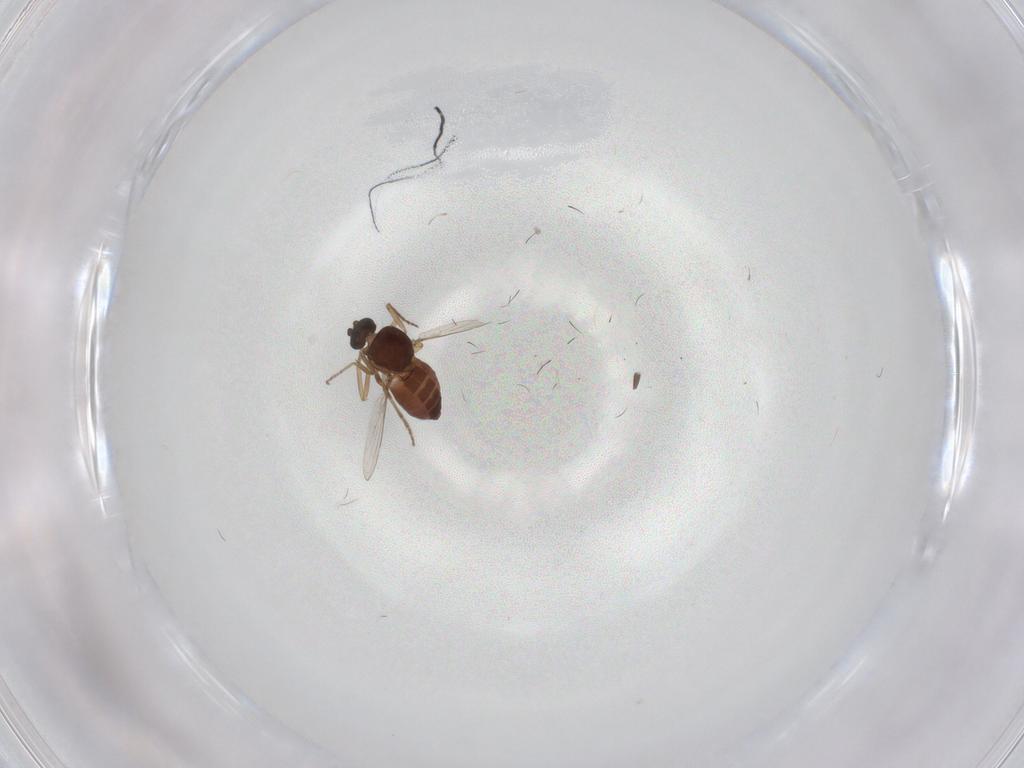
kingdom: Animalia
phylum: Arthropoda
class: Insecta
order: Diptera
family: Ceratopogonidae
